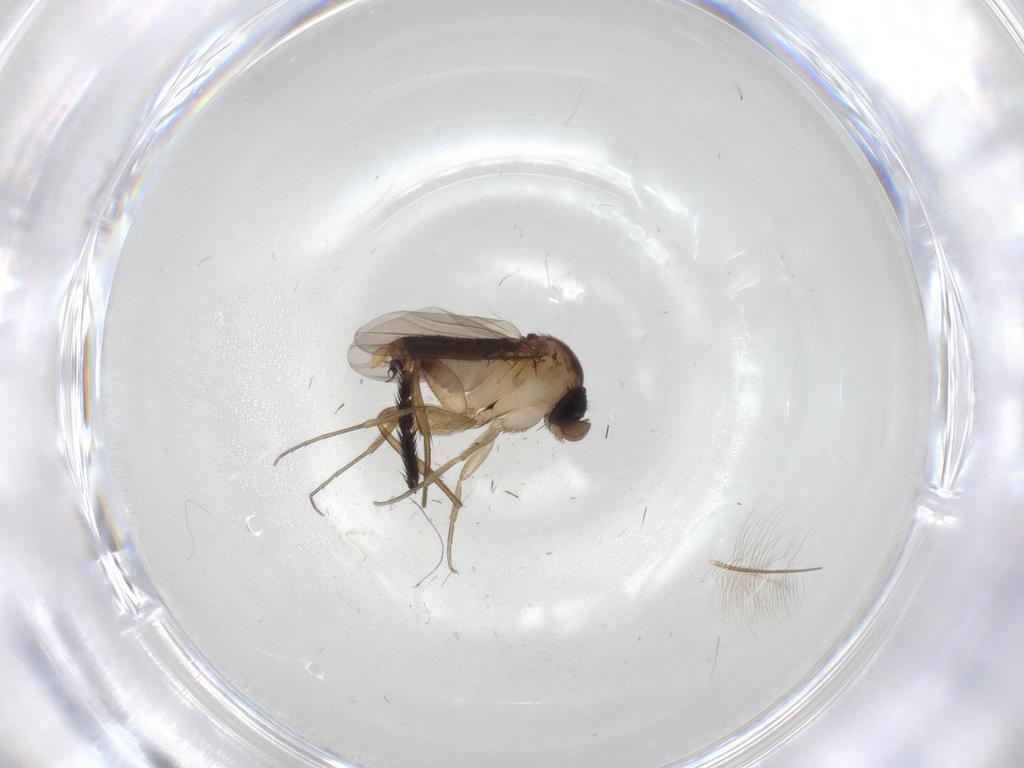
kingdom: Animalia
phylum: Arthropoda
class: Insecta
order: Diptera
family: Phoridae
